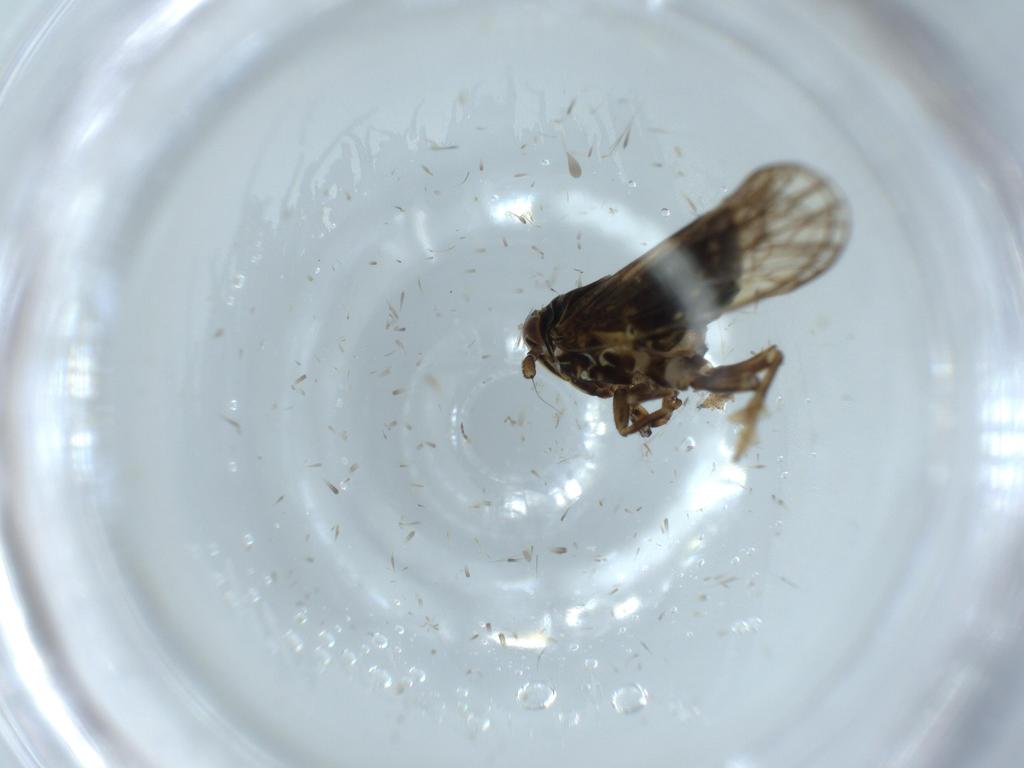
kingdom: Animalia
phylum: Arthropoda
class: Insecta
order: Hemiptera
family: Delphacidae
